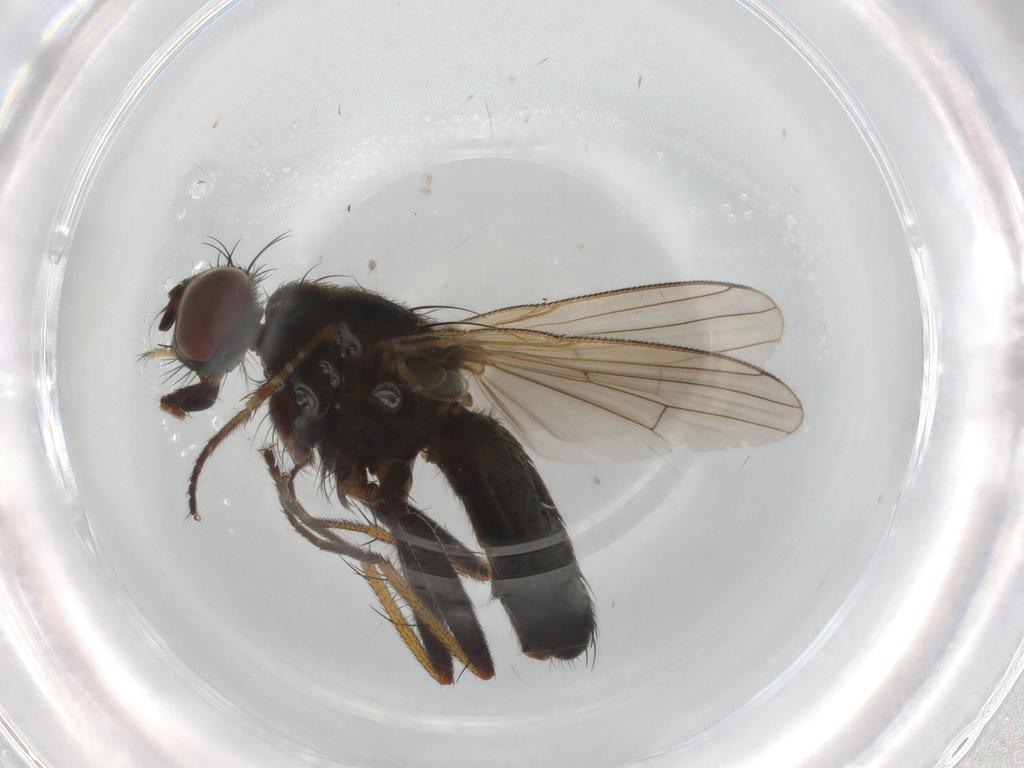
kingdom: Animalia
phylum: Arthropoda
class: Insecta
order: Diptera
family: Muscidae
